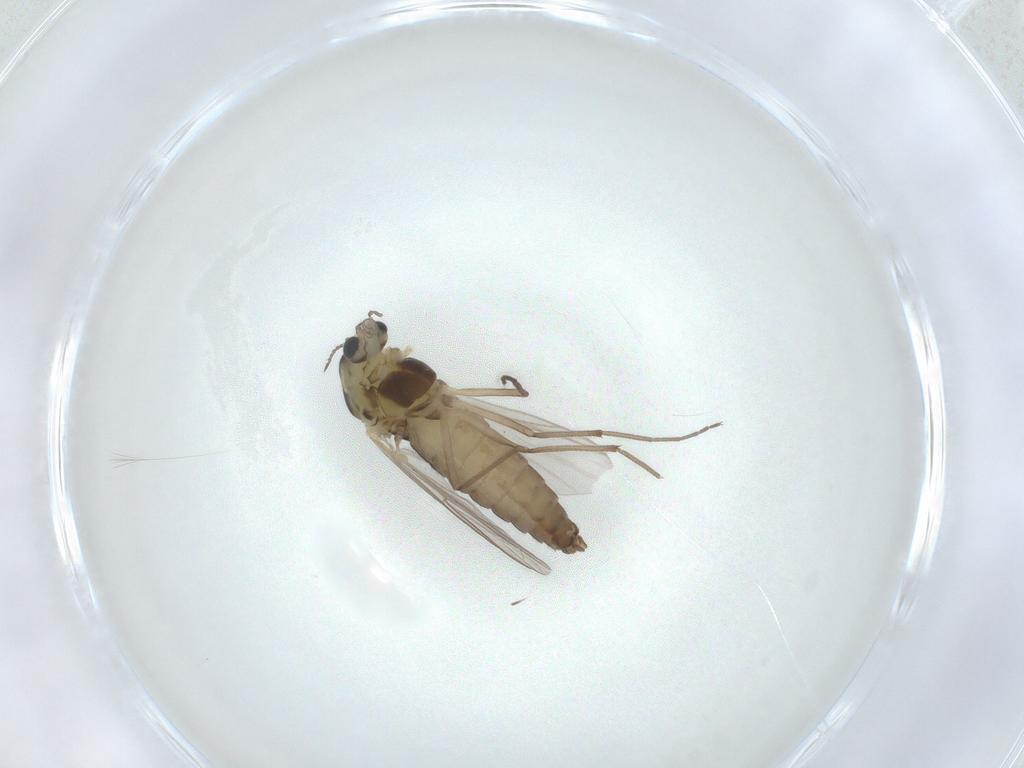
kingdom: Animalia
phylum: Arthropoda
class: Insecta
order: Diptera
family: Chironomidae
